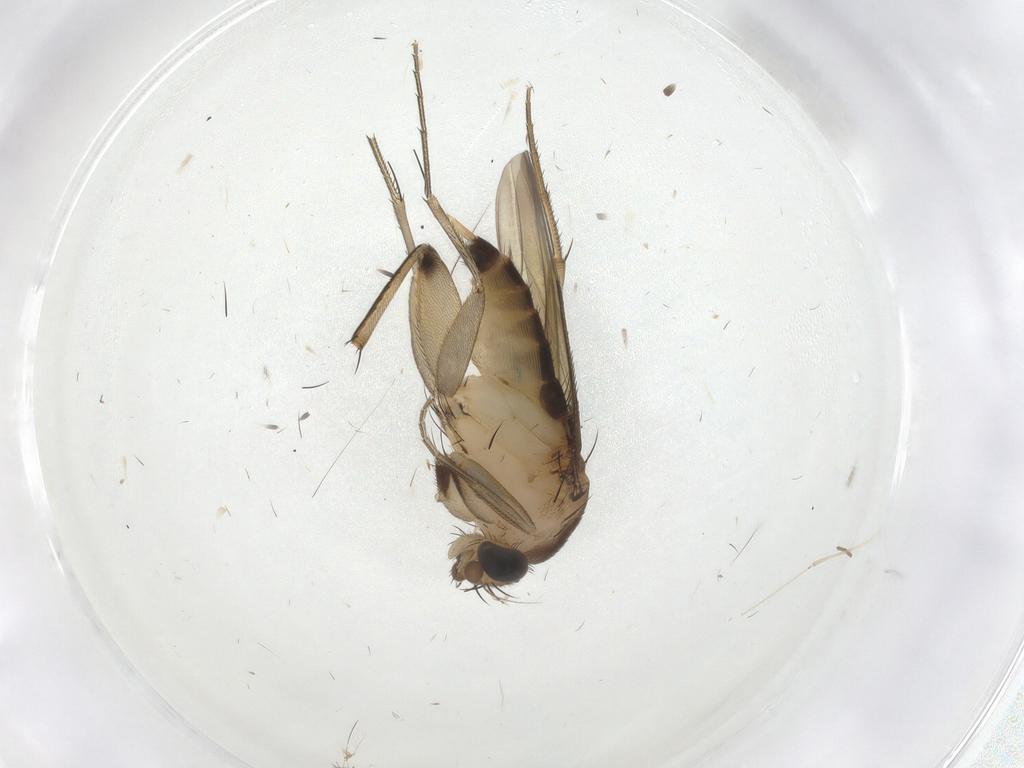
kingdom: Animalia
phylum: Arthropoda
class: Insecta
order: Diptera
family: Phoridae
